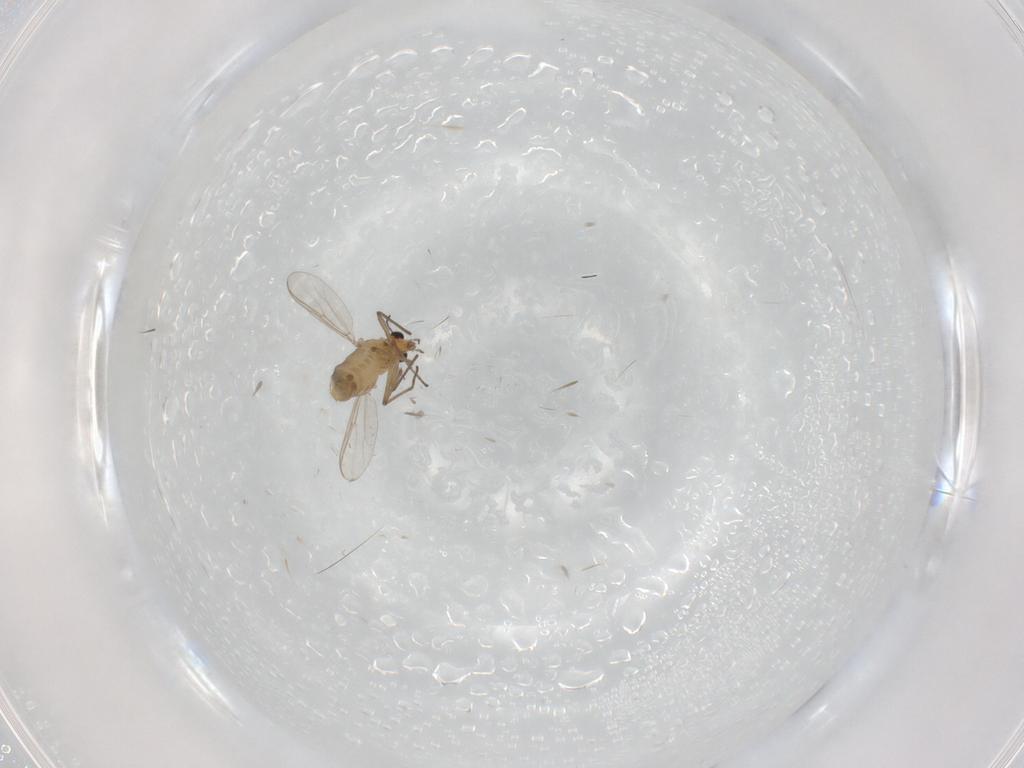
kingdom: Animalia
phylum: Arthropoda
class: Insecta
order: Diptera
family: Chironomidae
